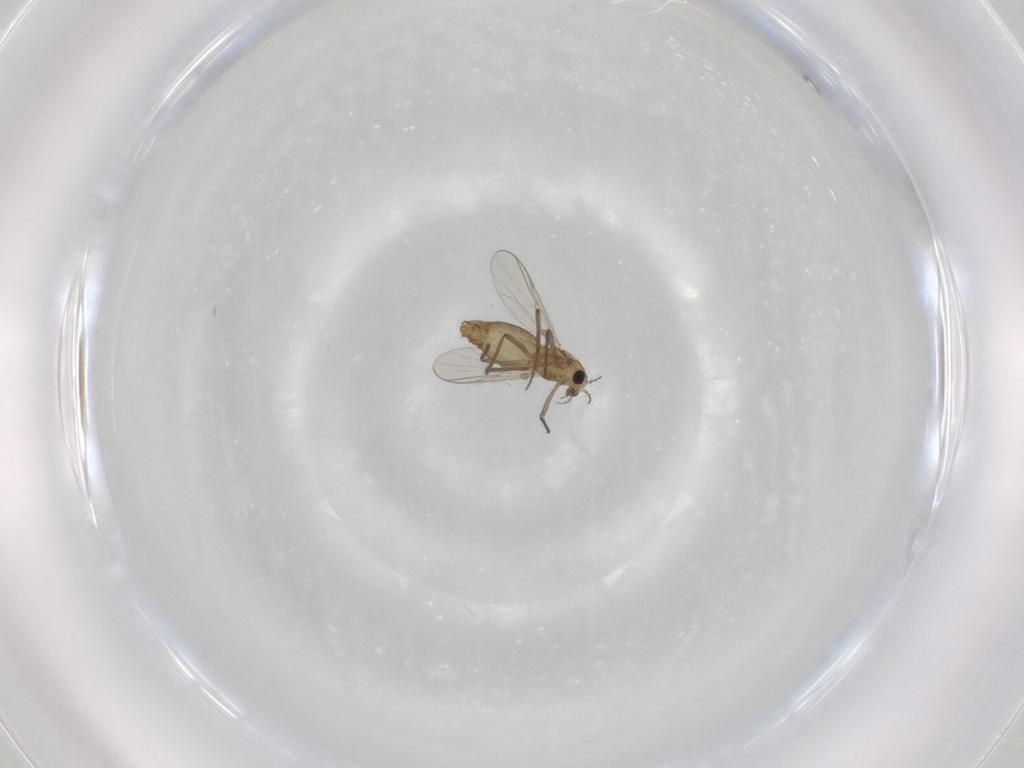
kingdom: Animalia
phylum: Arthropoda
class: Insecta
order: Diptera
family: Chironomidae
